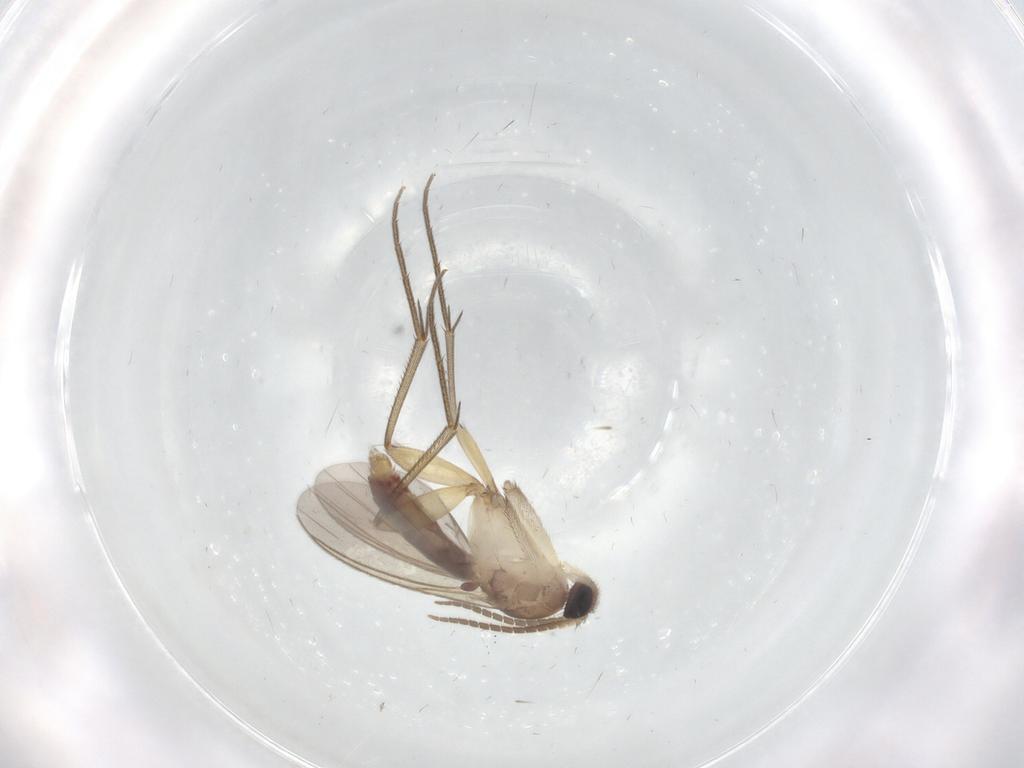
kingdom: Animalia
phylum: Arthropoda
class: Insecta
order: Diptera
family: Mycetophilidae
